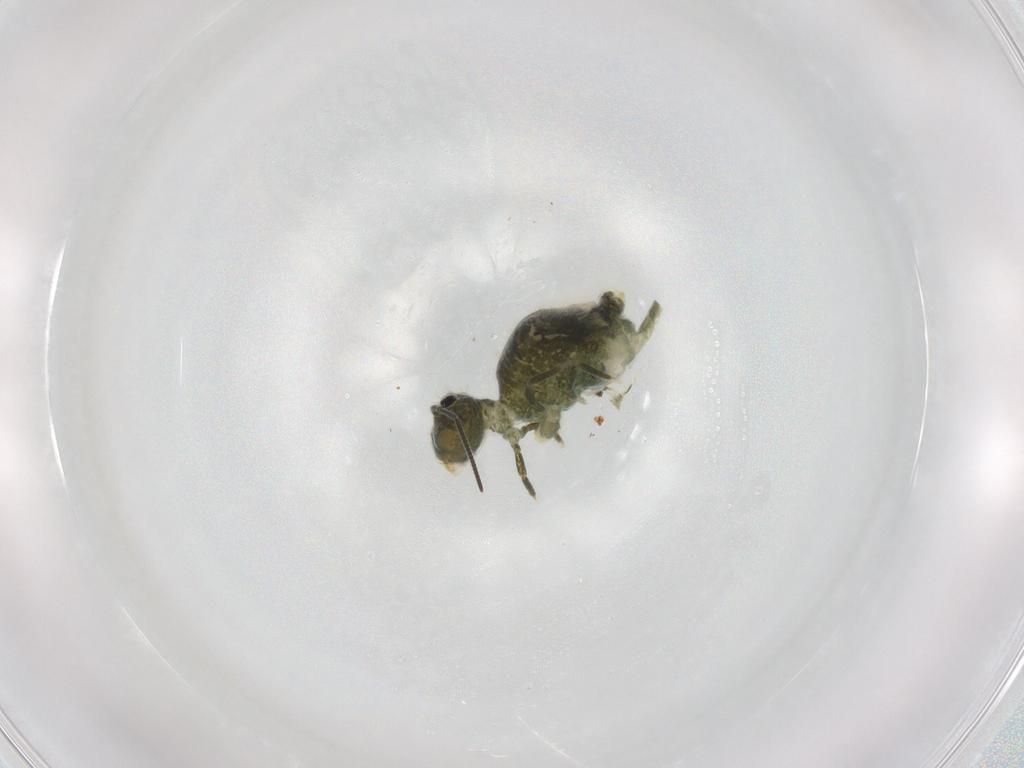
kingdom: Animalia
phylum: Arthropoda
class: Collembola
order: Symphypleona
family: Sminthuridae
